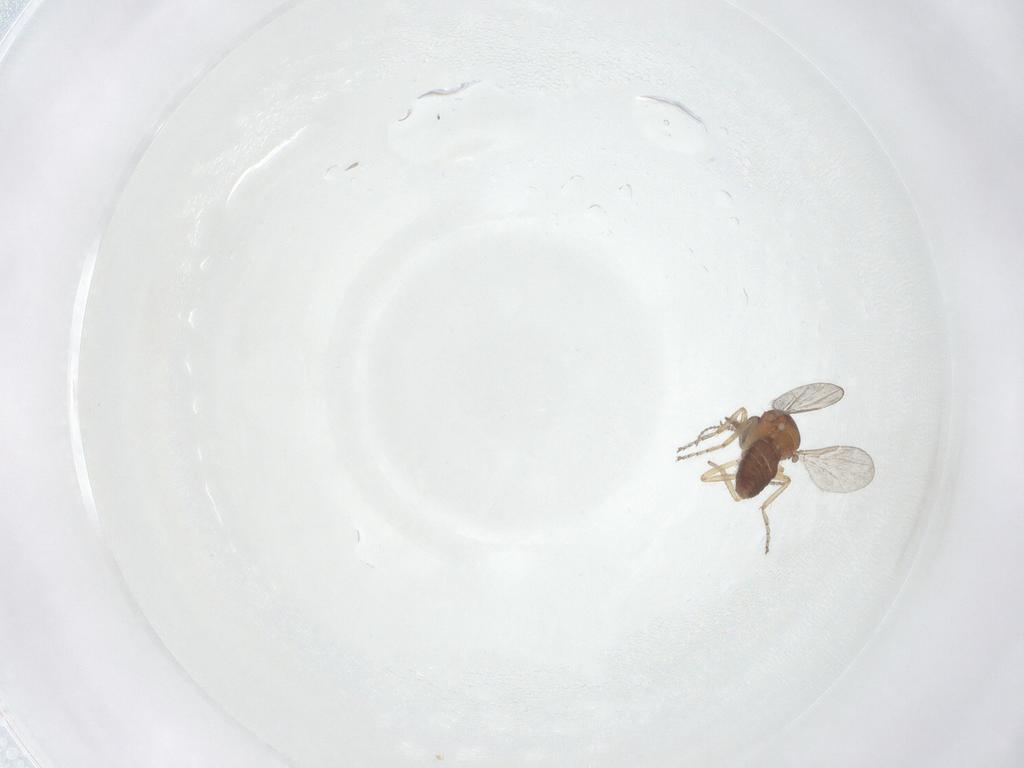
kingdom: Animalia
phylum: Arthropoda
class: Insecta
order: Diptera
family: Ceratopogonidae
